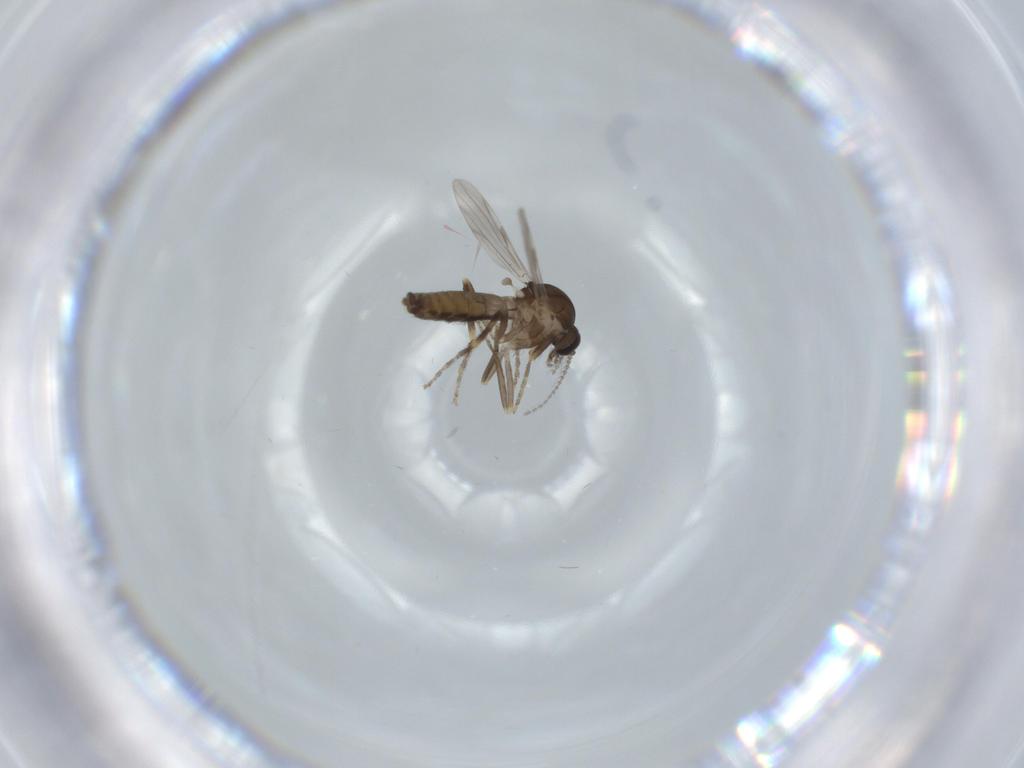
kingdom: Animalia
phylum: Arthropoda
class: Insecta
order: Diptera
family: Ceratopogonidae
